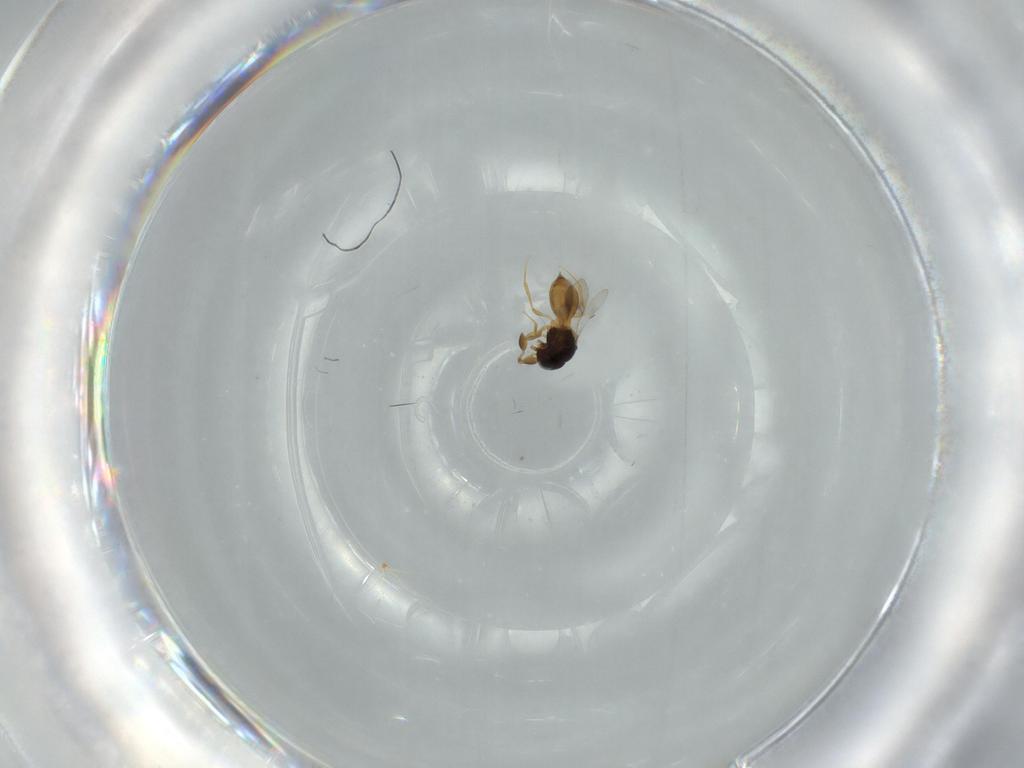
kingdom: Animalia
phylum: Arthropoda
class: Insecta
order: Hymenoptera
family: Scelionidae
